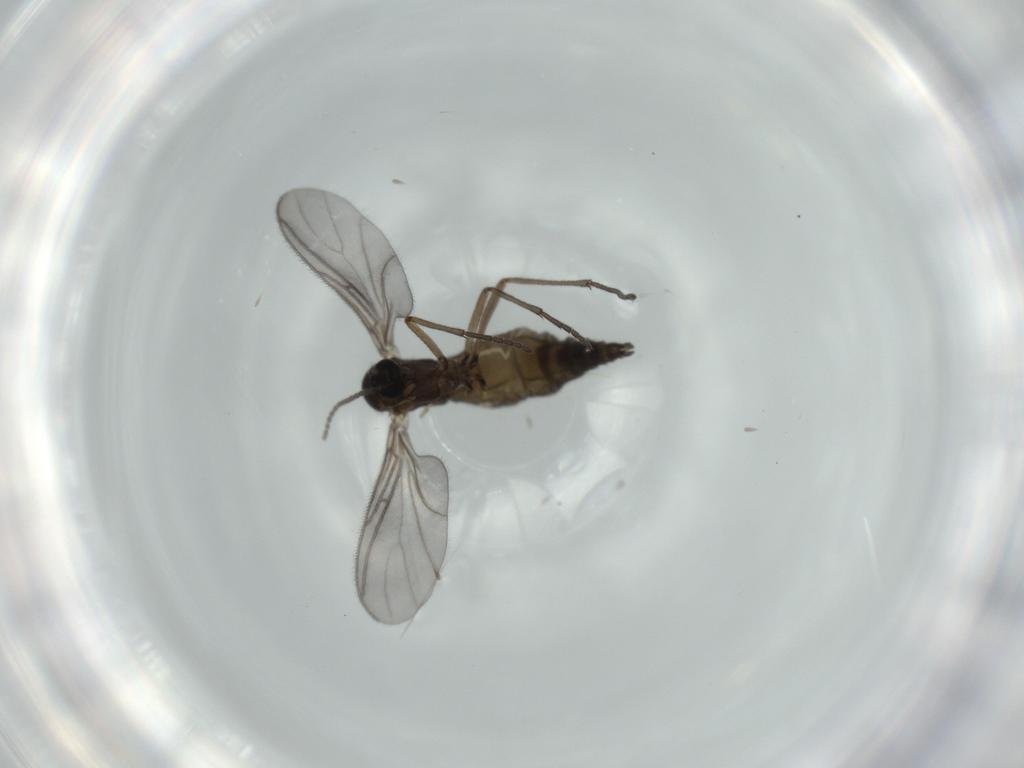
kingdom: Animalia
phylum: Arthropoda
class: Insecta
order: Diptera
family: Sciaridae
